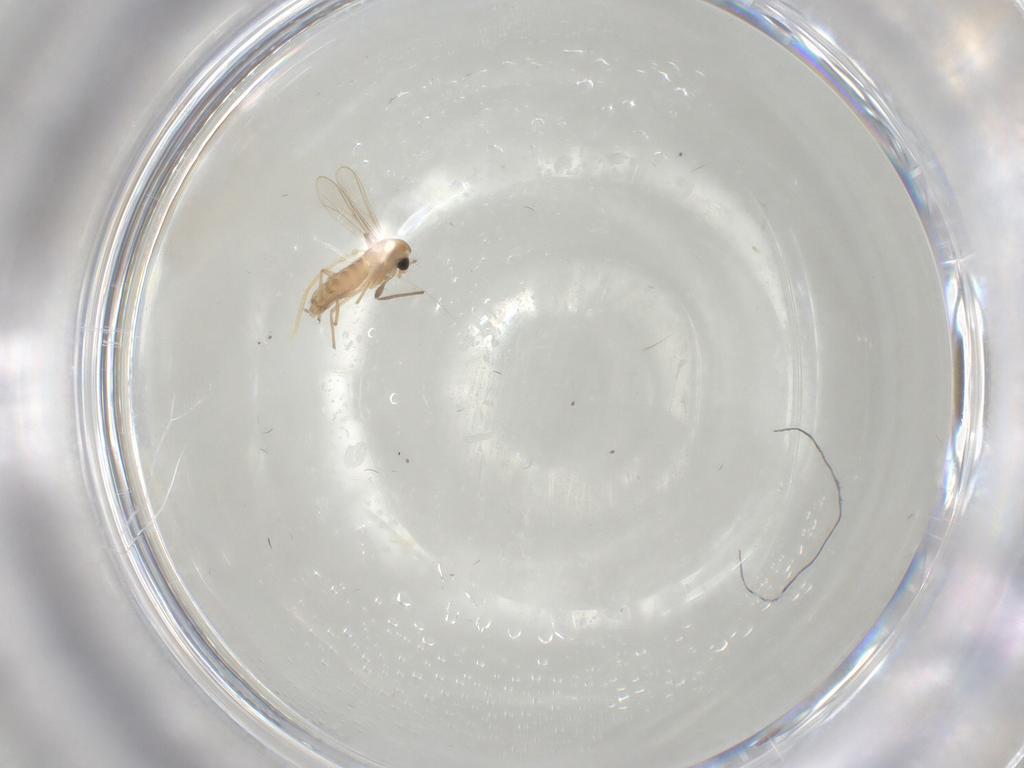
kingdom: Animalia
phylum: Arthropoda
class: Insecta
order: Diptera
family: Chironomidae
